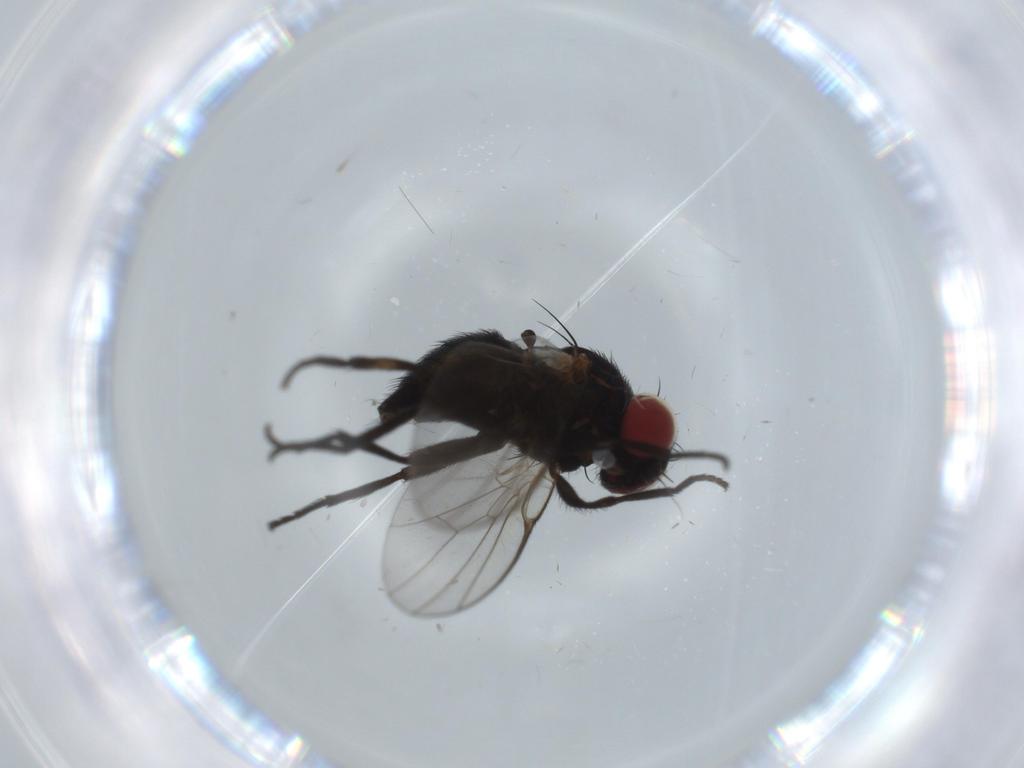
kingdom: Animalia
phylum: Arthropoda
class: Insecta
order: Diptera
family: Agromyzidae
